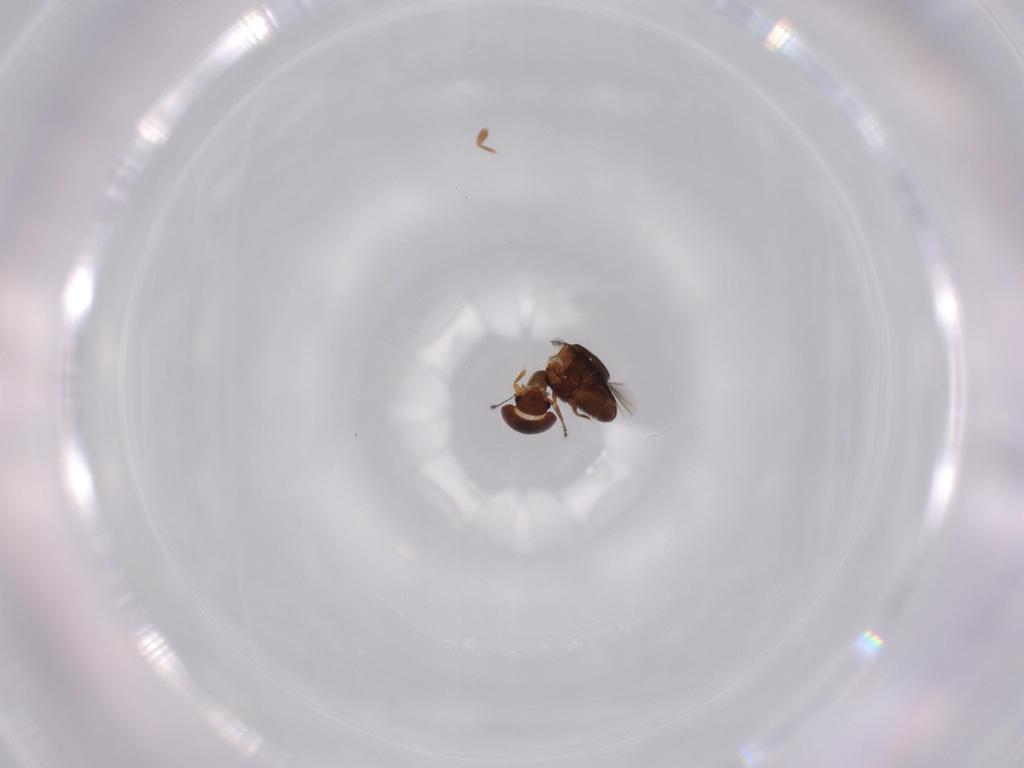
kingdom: Animalia
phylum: Arthropoda
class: Insecta
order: Coleoptera
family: Ptiliidae
